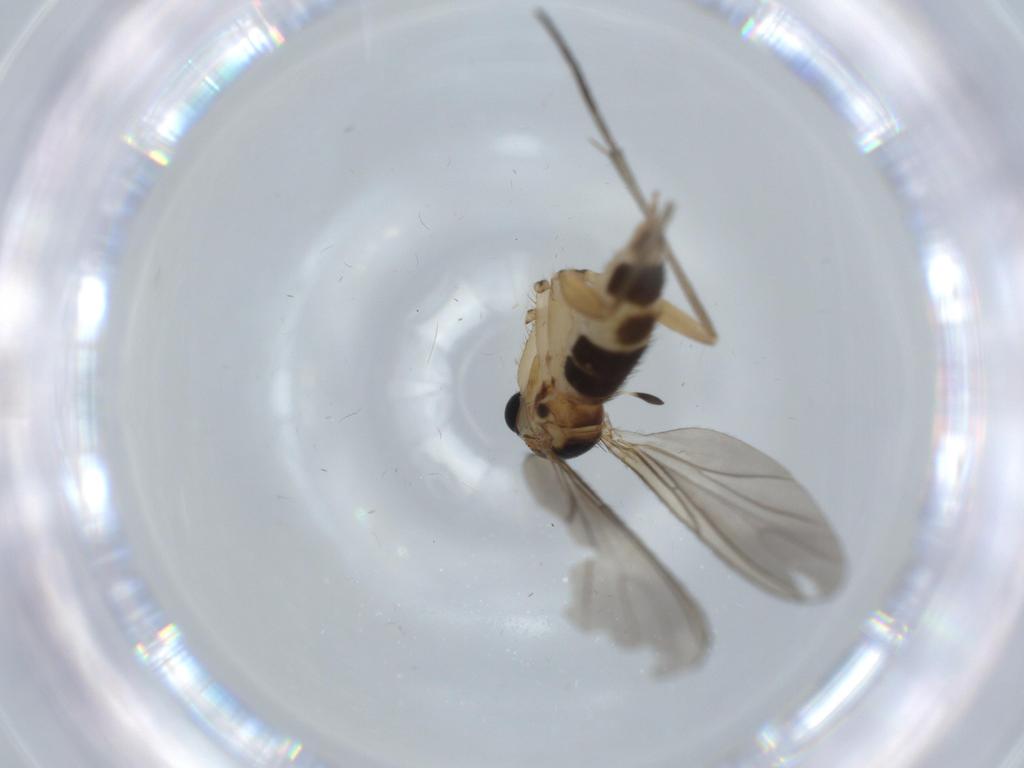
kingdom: Animalia
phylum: Arthropoda
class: Insecta
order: Diptera
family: Sciaridae
